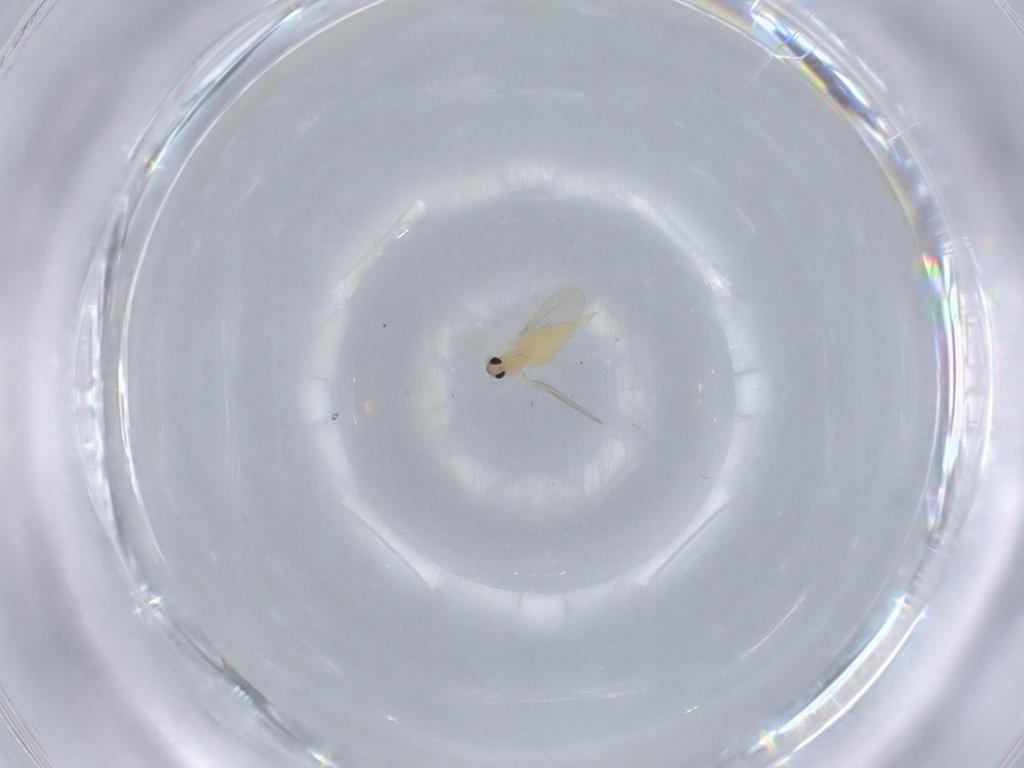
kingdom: Animalia
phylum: Arthropoda
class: Insecta
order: Diptera
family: Cecidomyiidae
